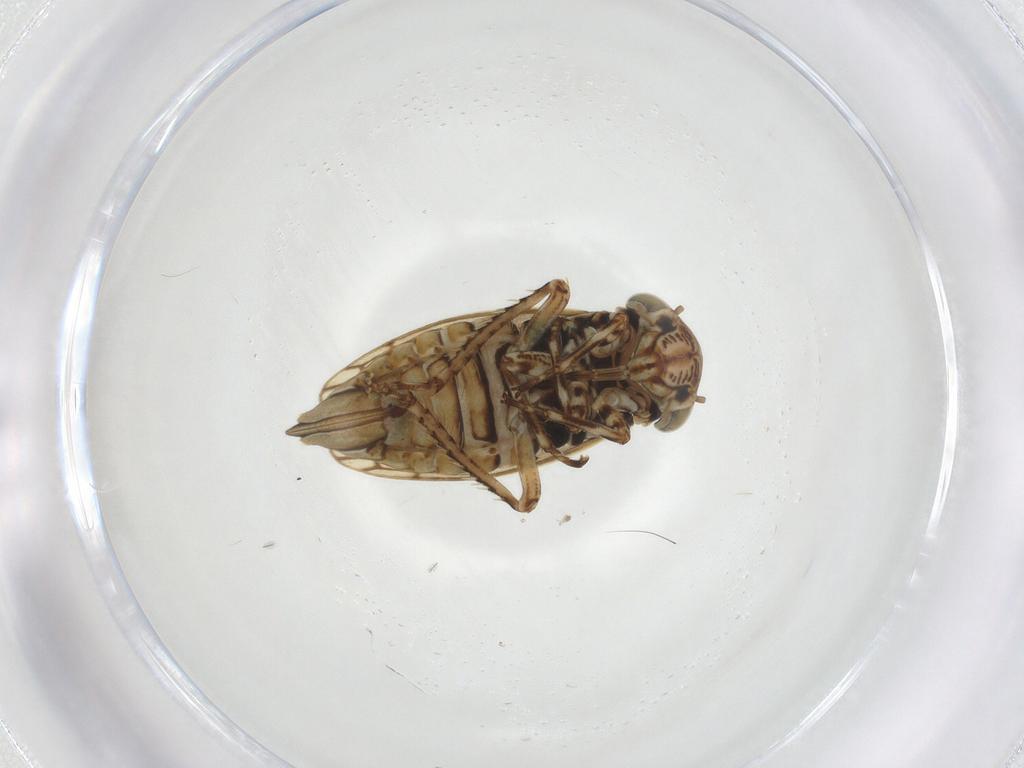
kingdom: Animalia
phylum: Arthropoda
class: Insecta
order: Hemiptera
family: Cicadellidae
